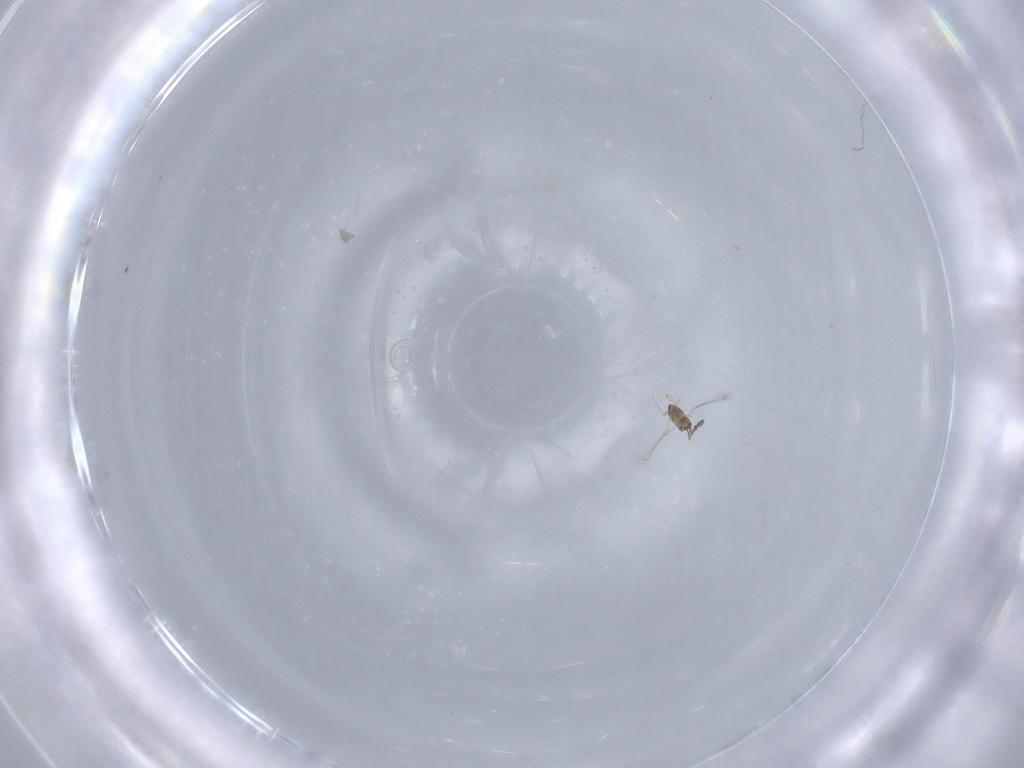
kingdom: Animalia
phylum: Arthropoda
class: Insecta
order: Hymenoptera
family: Mymaridae
